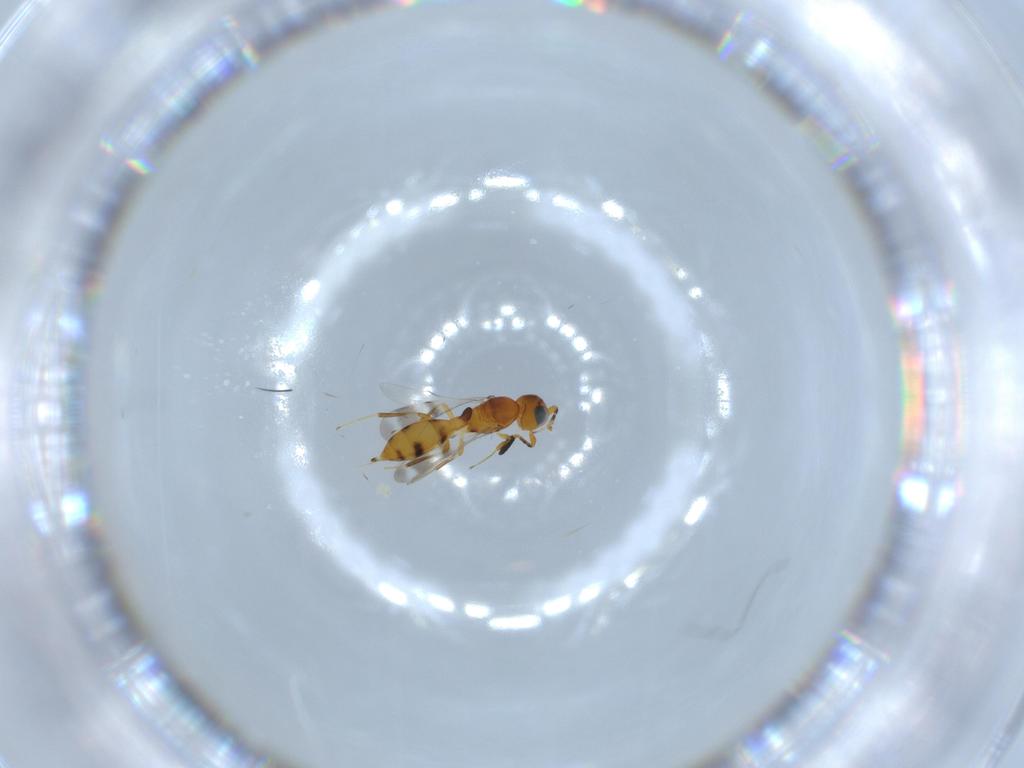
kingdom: Animalia
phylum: Arthropoda
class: Insecta
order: Hymenoptera
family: Scelionidae
